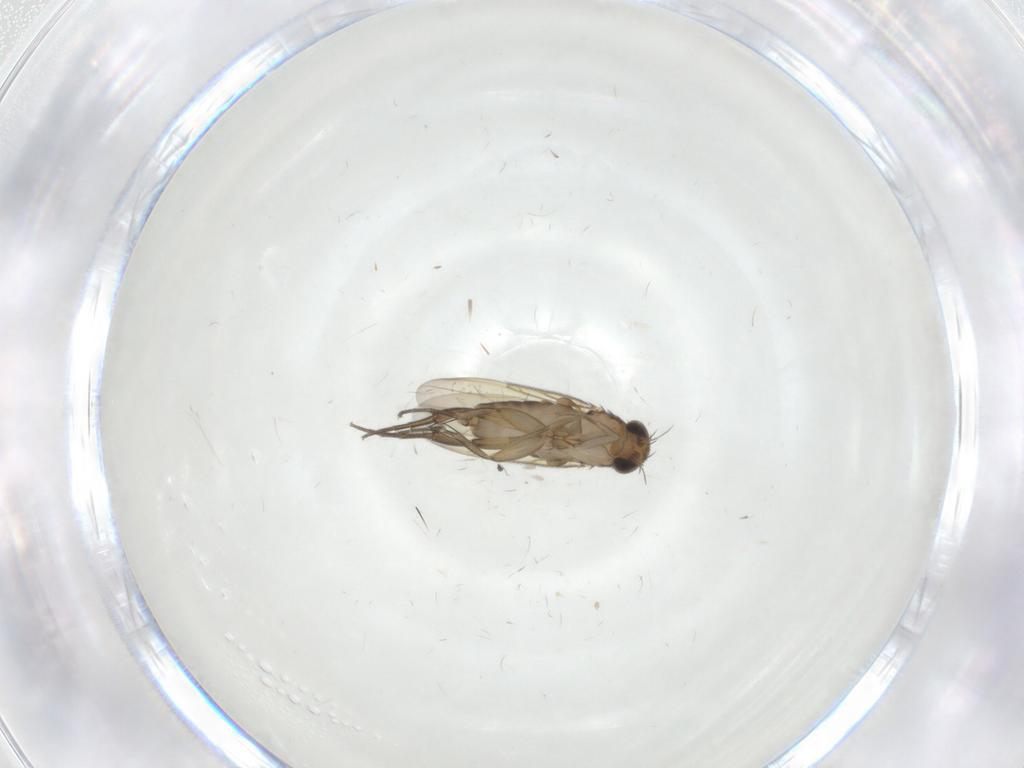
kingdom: Animalia
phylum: Arthropoda
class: Insecta
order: Diptera
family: Phoridae
